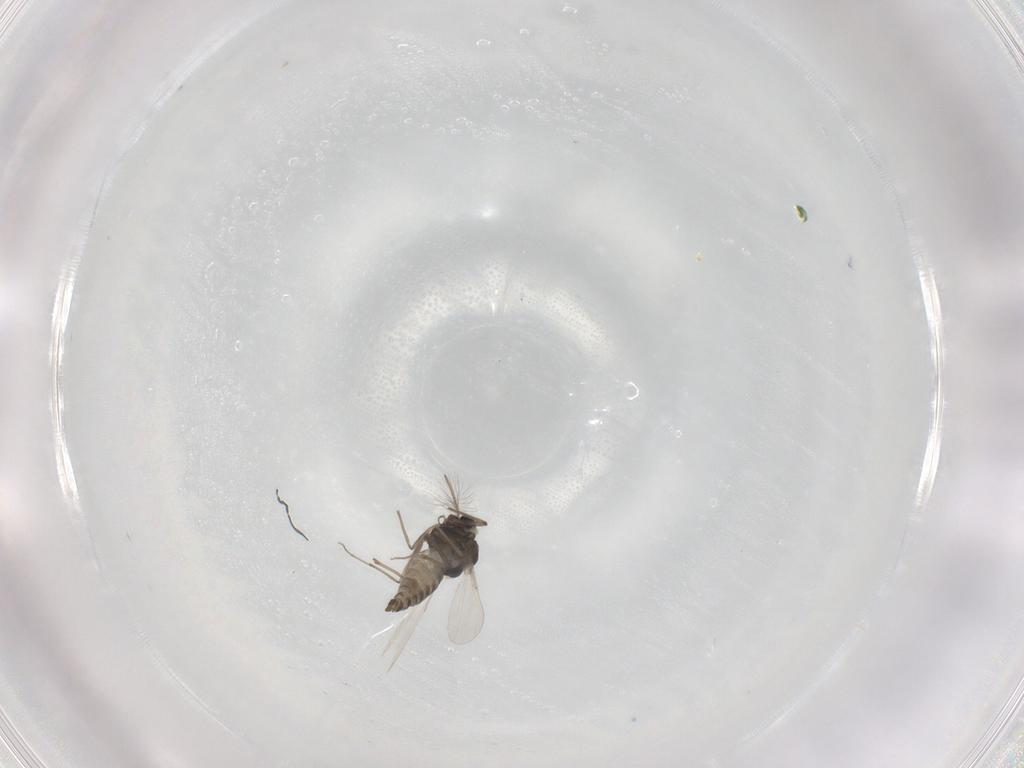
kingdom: Animalia
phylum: Arthropoda
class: Insecta
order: Diptera
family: Chironomidae
